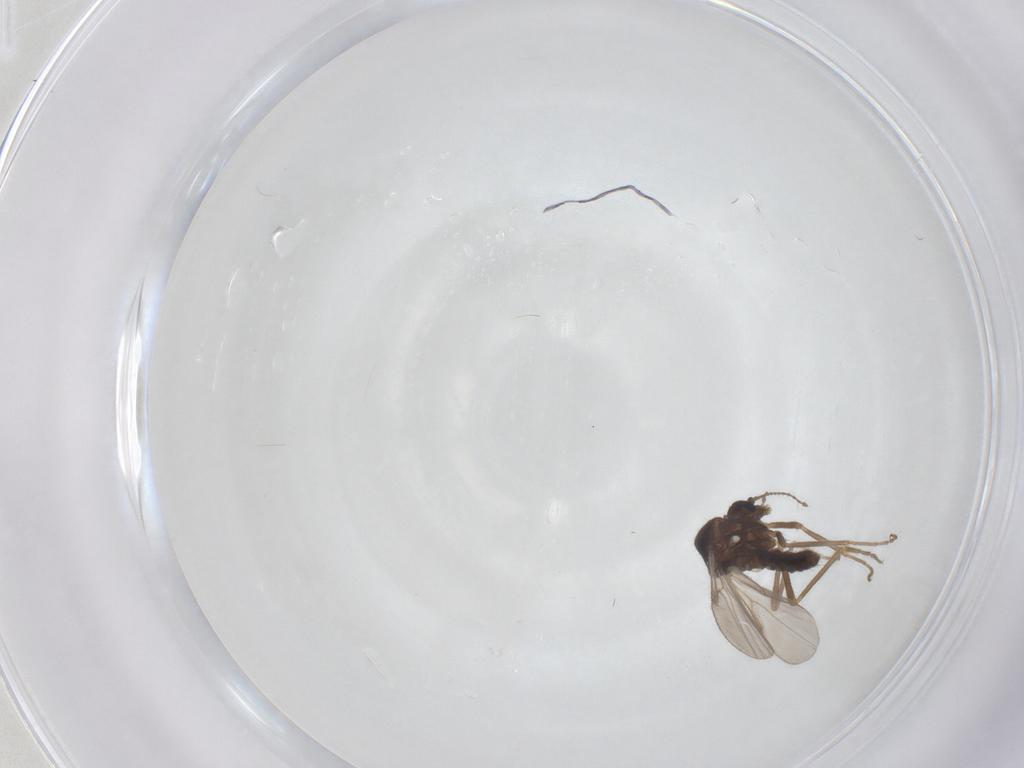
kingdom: Animalia
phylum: Arthropoda
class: Insecta
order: Diptera
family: Ceratopogonidae
